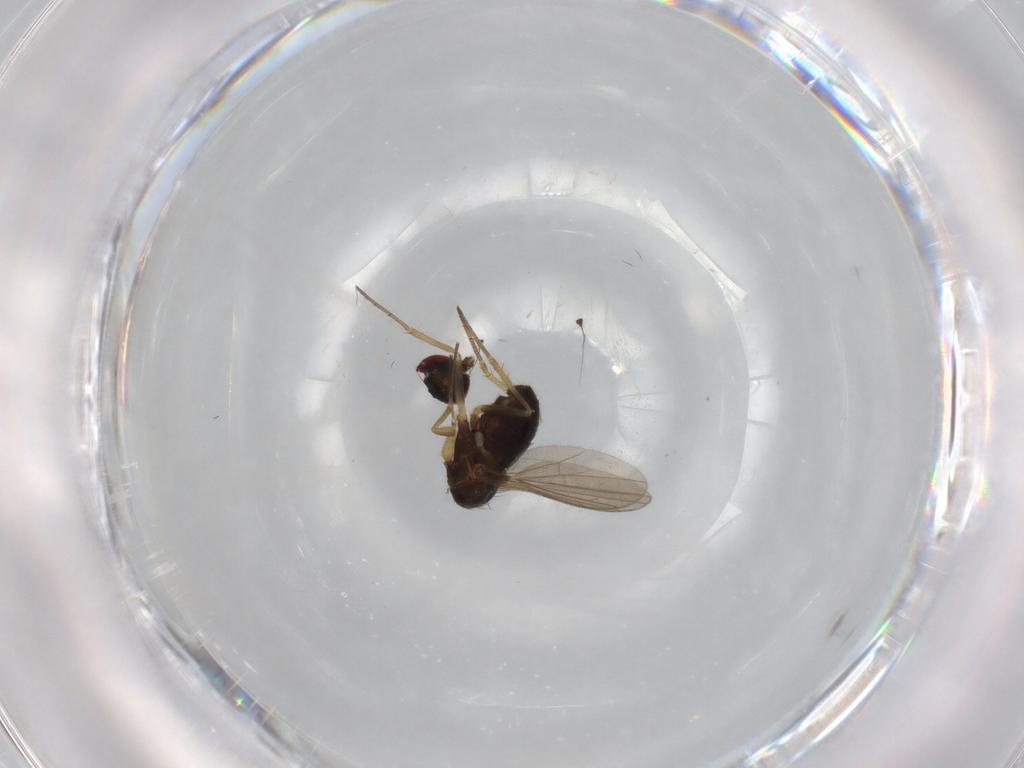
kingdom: Animalia
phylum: Arthropoda
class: Insecta
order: Diptera
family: Dolichopodidae
